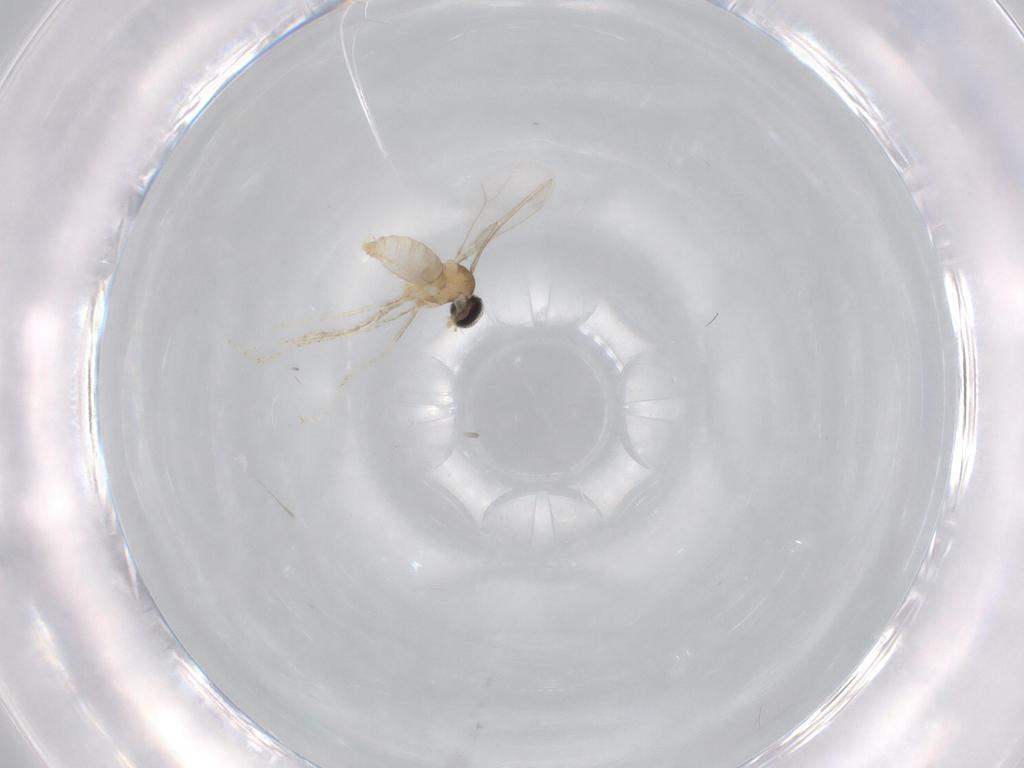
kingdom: Animalia
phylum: Arthropoda
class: Insecta
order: Diptera
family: Cecidomyiidae
